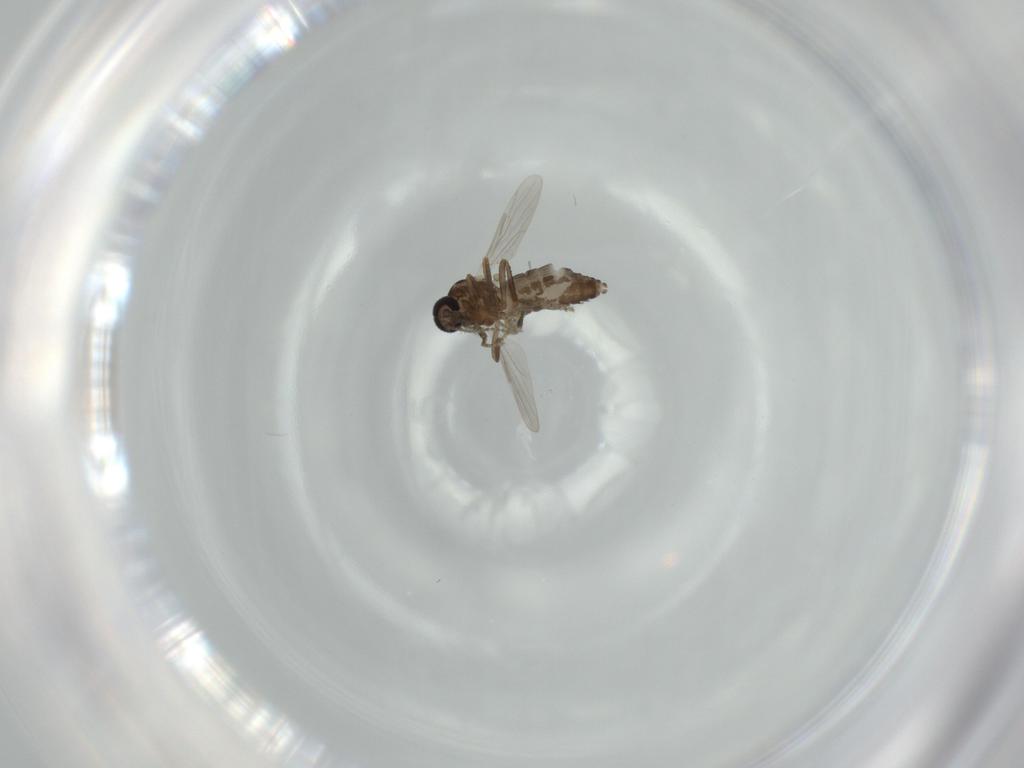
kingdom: Animalia
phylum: Arthropoda
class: Insecta
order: Diptera
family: Ceratopogonidae
